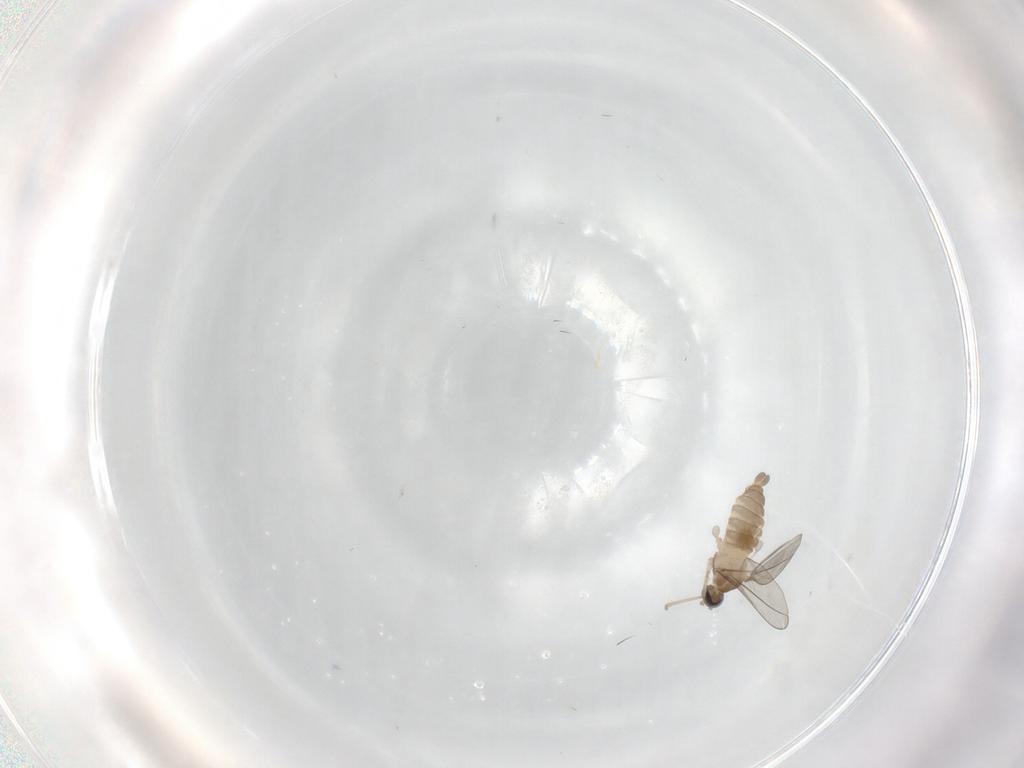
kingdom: Animalia
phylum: Arthropoda
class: Insecta
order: Diptera
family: Cecidomyiidae
